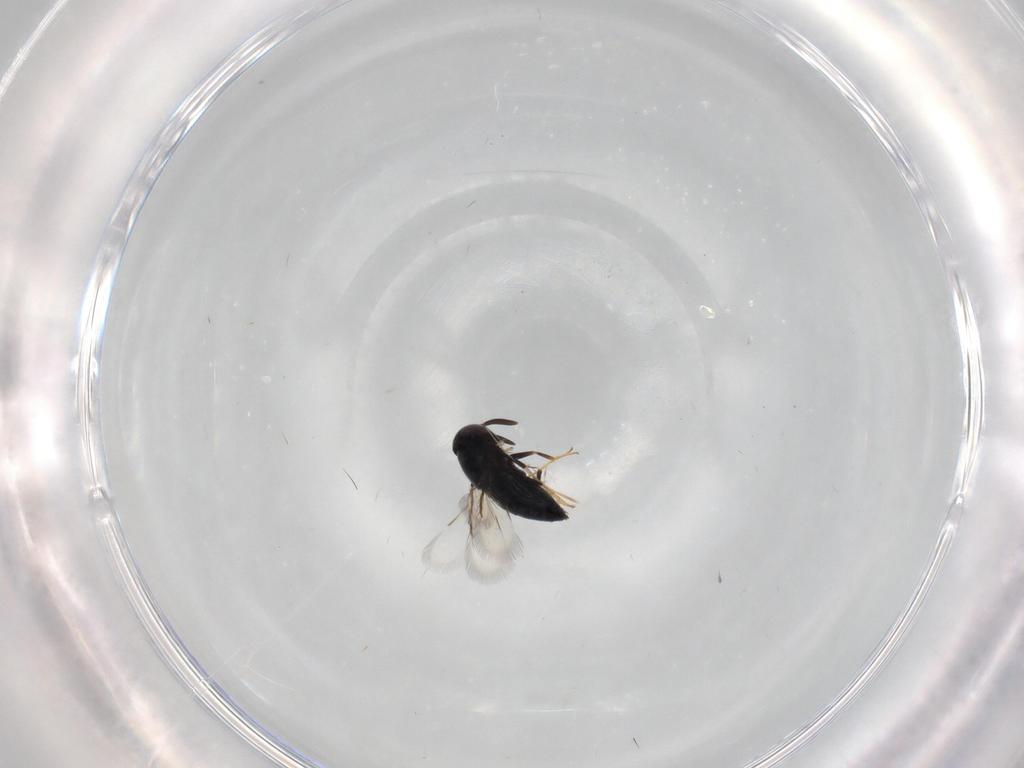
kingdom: Animalia
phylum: Arthropoda
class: Insecta
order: Hymenoptera
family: Signiphoridae
